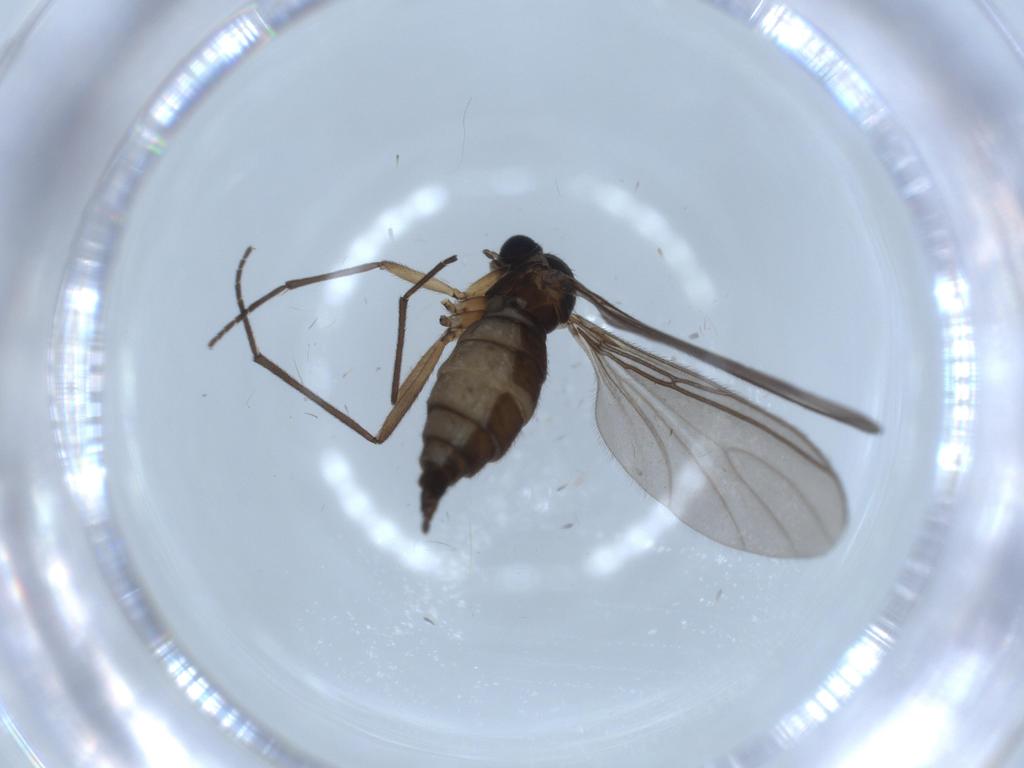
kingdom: Animalia
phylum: Arthropoda
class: Insecta
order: Diptera
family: Sciaridae
